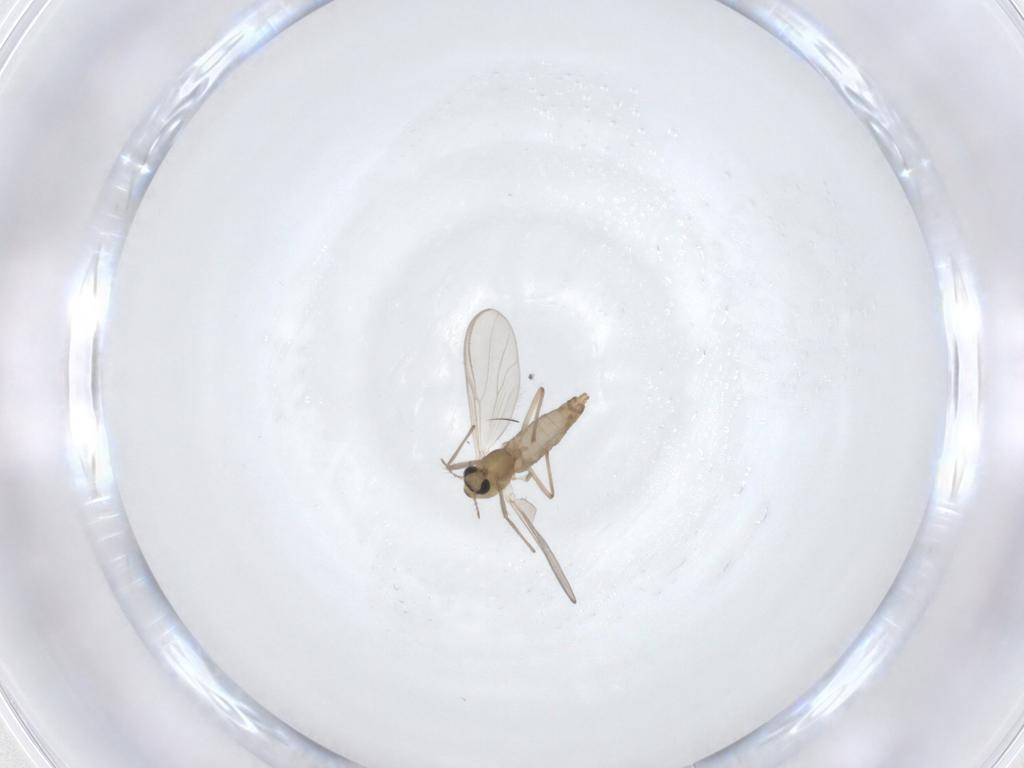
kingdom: Animalia
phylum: Arthropoda
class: Insecta
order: Diptera
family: Chironomidae
